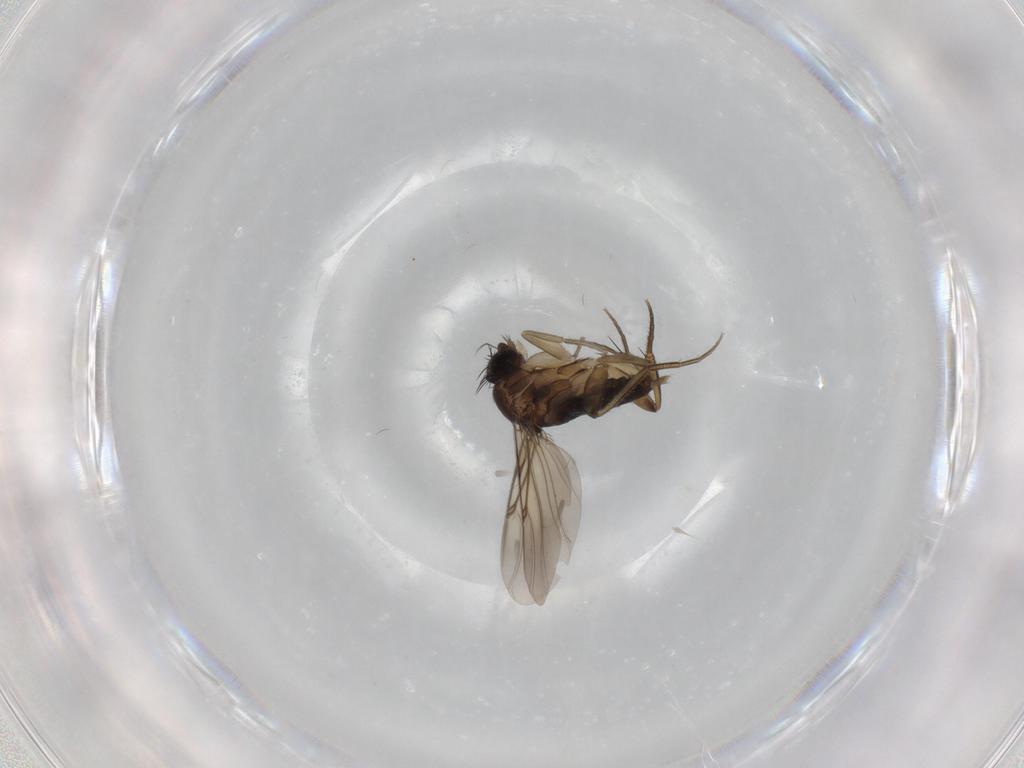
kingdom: Animalia
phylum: Arthropoda
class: Insecta
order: Diptera
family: Phoridae
